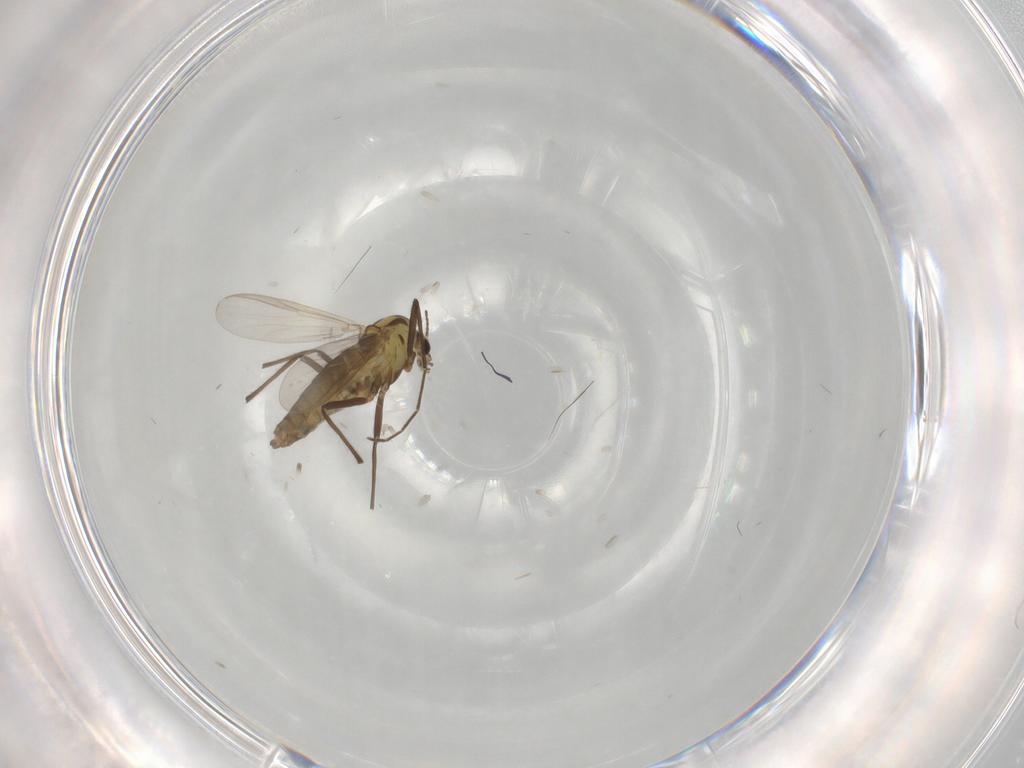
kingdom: Animalia
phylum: Arthropoda
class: Insecta
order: Diptera
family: Chironomidae
